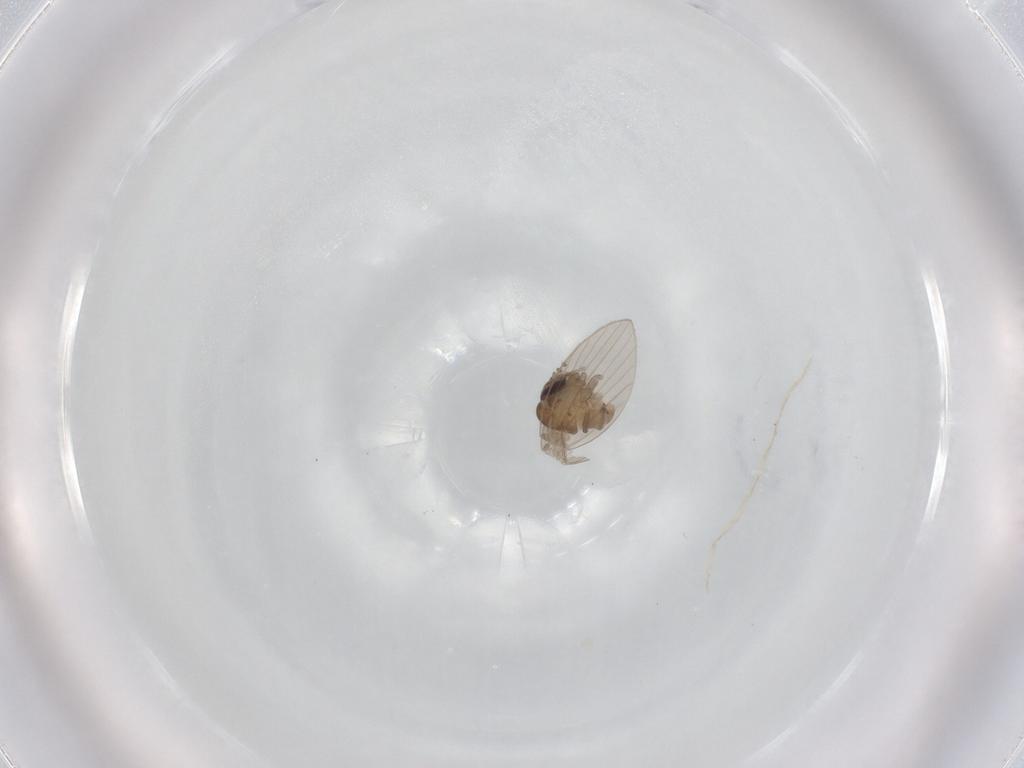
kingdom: Animalia
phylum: Arthropoda
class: Insecta
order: Diptera
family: Psychodidae
